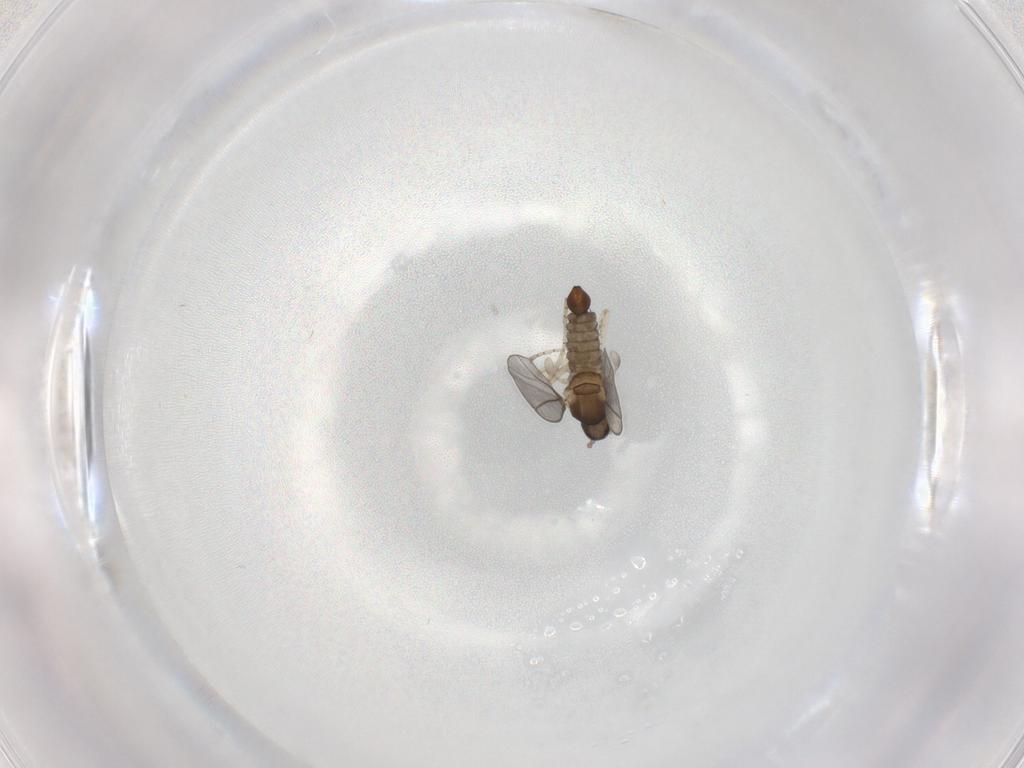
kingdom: Animalia
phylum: Arthropoda
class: Insecta
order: Diptera
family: Cecidomyiidae
